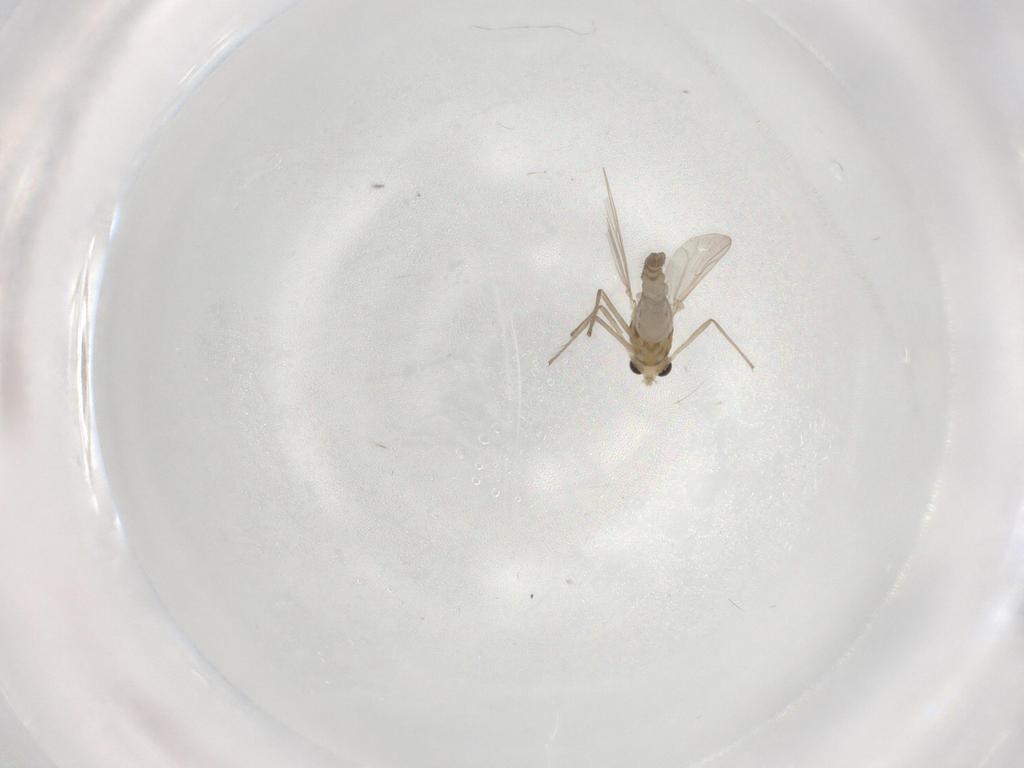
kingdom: Animalia
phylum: Arthropoda
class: Insecta
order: Diptera
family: Chironomidae
